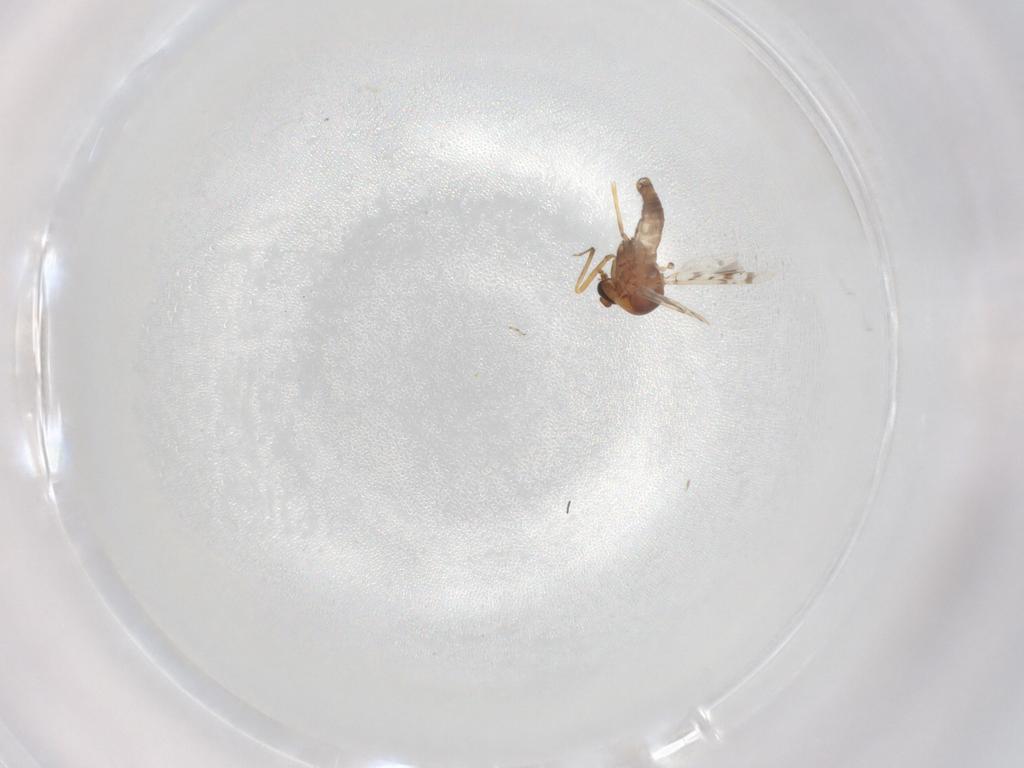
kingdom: Animalia
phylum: Arthropoda
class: Insecta
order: Diptera
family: Ceratopogonidae
